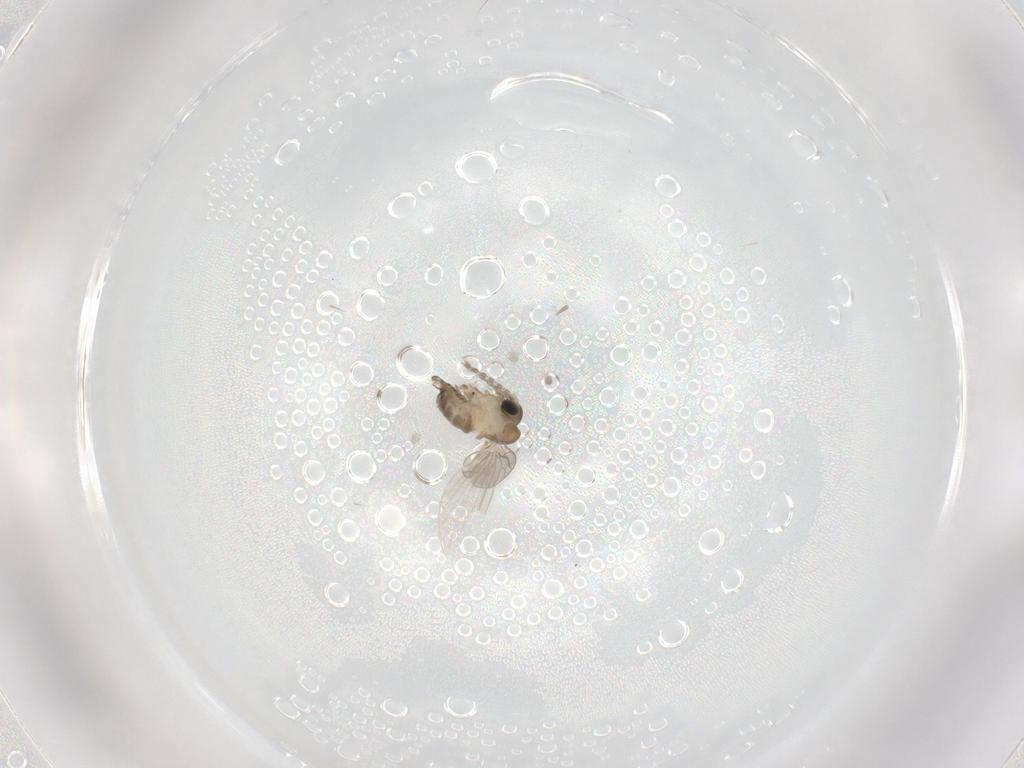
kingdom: Animalia
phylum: Arthropoda
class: Insecta
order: Diptera
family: Psychodidae
